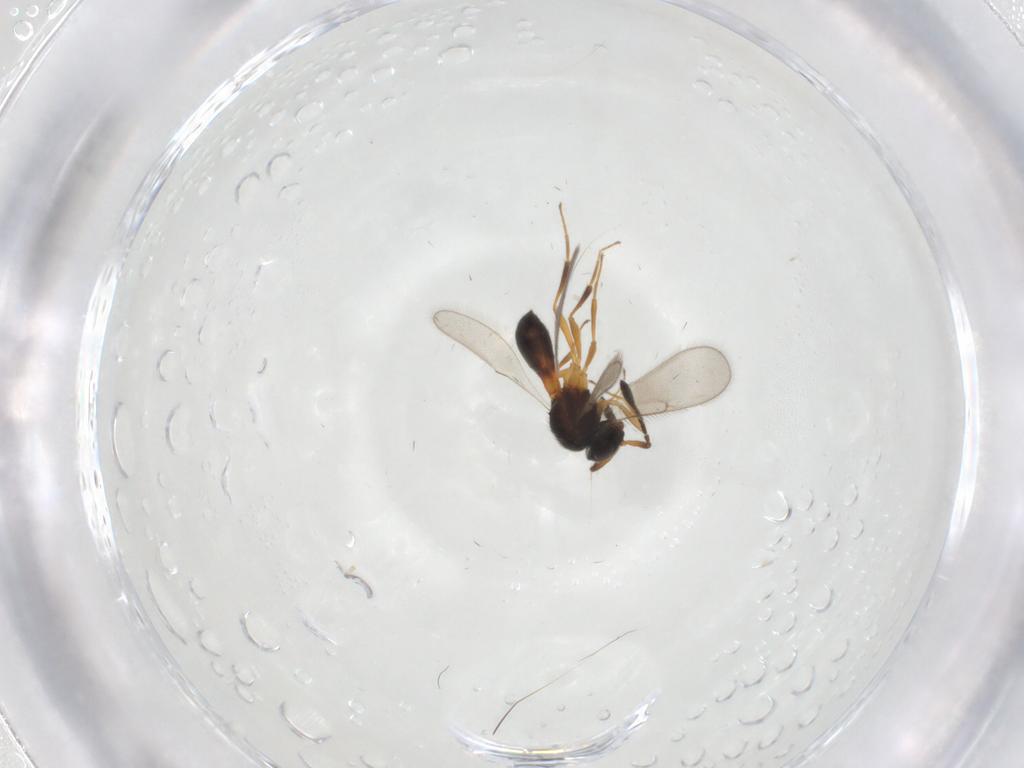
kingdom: Animalia
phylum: Arthropoda
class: Insecta
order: Hymenoptera
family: Scelionidae
